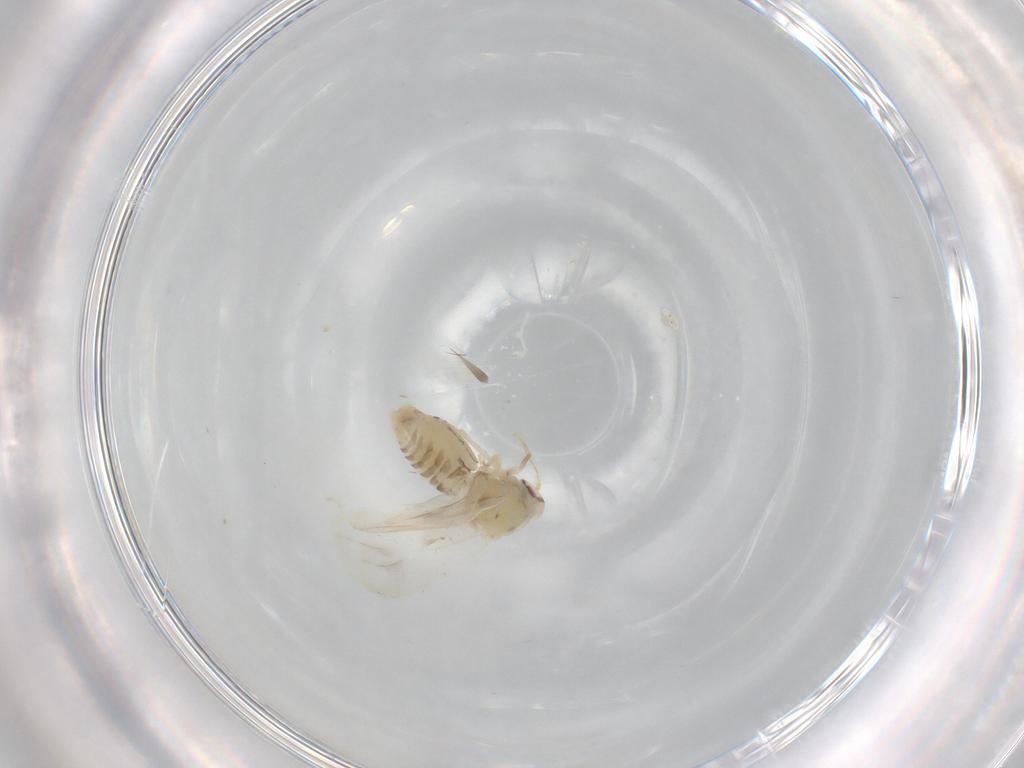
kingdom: Animalia
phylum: Arthropoda
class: Insecta
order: Hemiptera
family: Aleyrodidae
